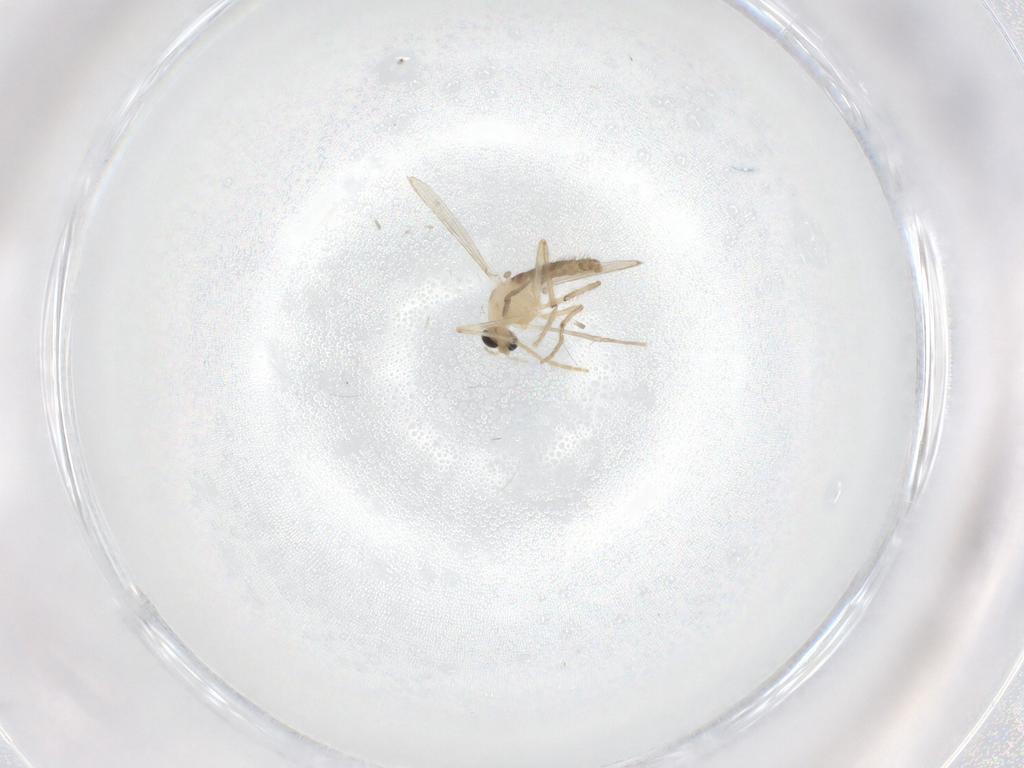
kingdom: Animalia
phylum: Arthropoda
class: Insecta
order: Diptera
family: Chironomidae
